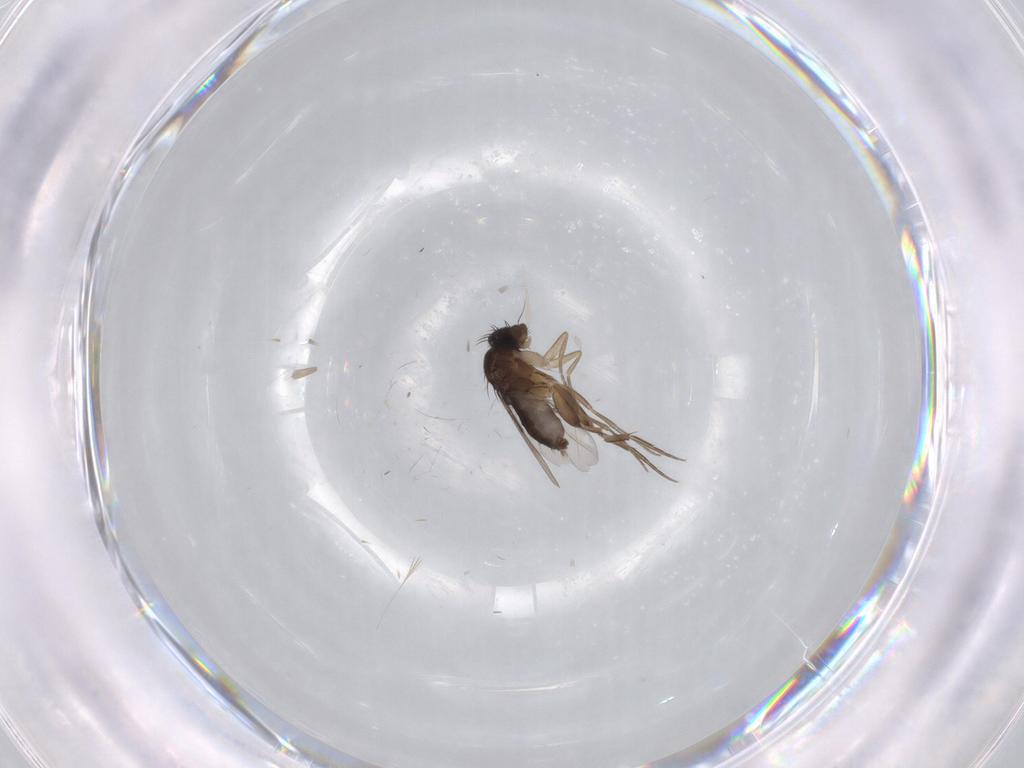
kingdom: Animalia
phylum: Arthropoda
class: Insecta
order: Diptera
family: Phoridae
